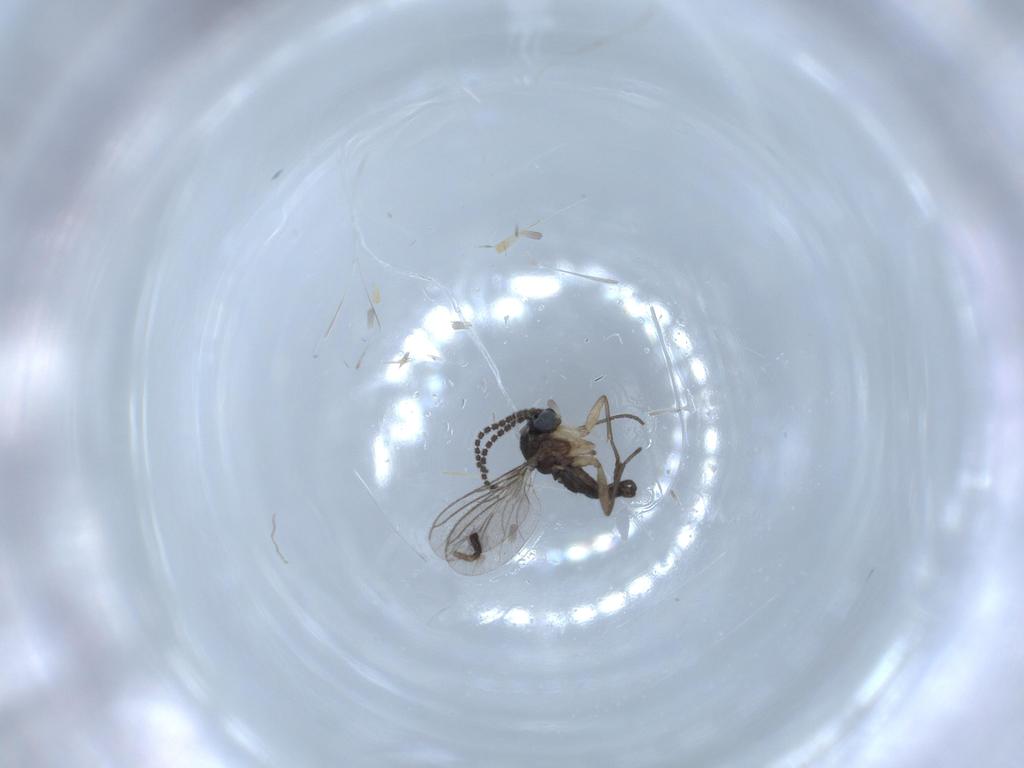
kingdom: Animalia
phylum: Arthropoda
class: Insecta
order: Diptera
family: Sciaridae
